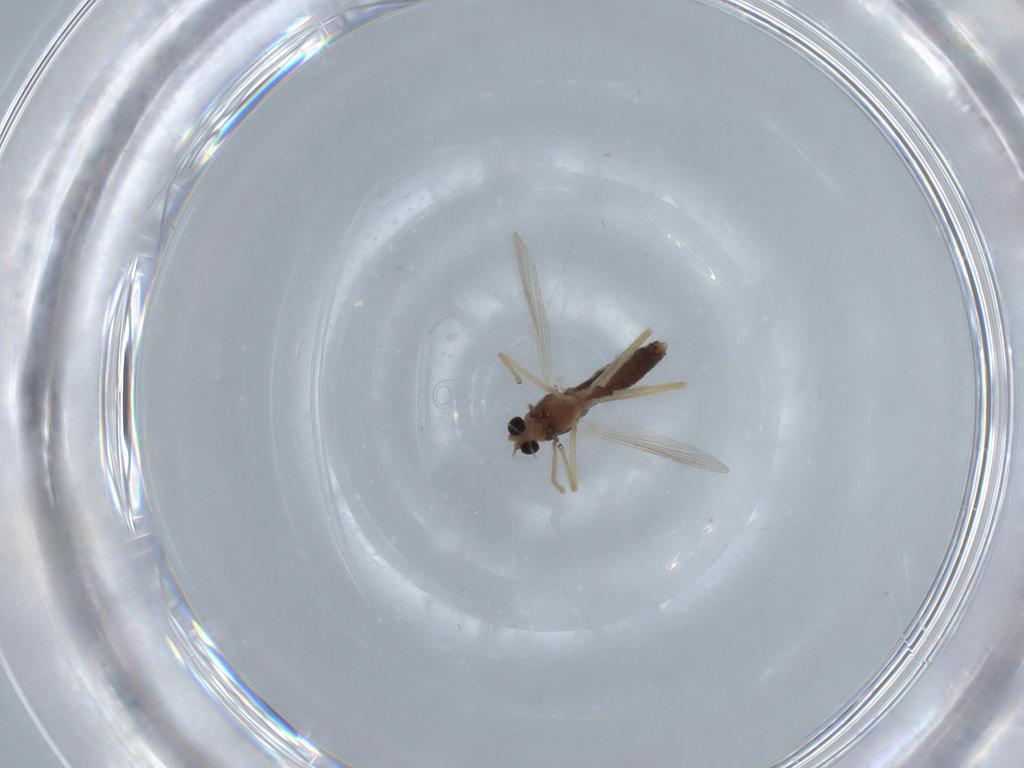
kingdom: Animalia
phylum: Arthropoda
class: Insecta
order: Diptera
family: Chironomidae
